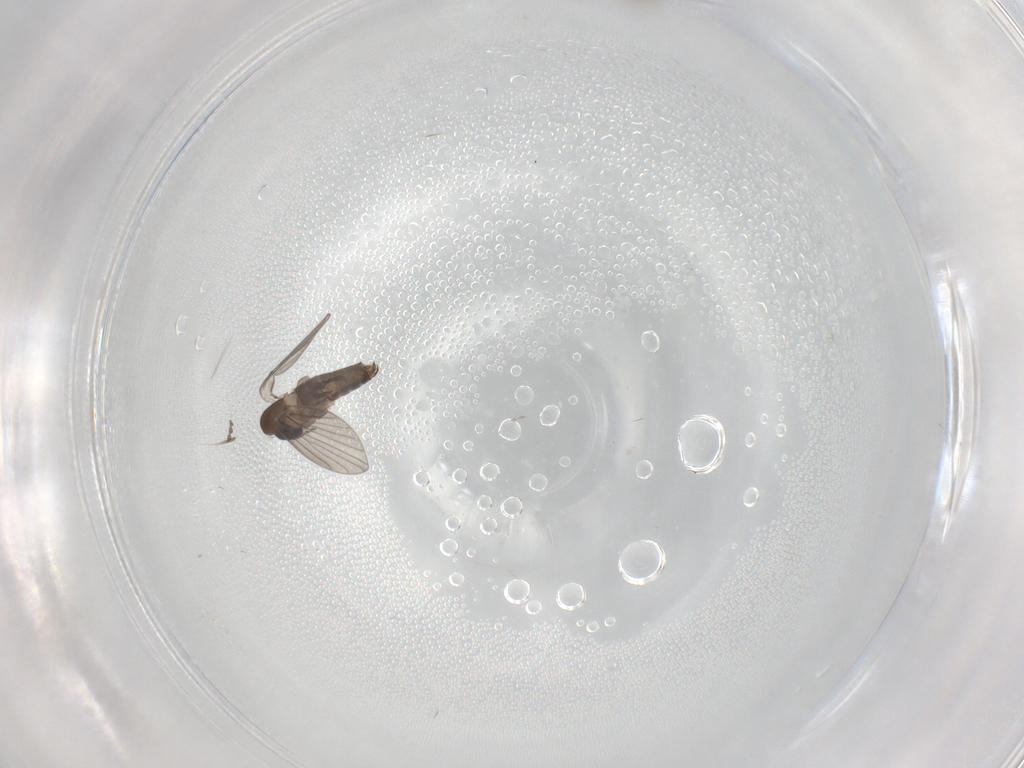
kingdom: Animalia
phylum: Arthropoda
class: Insecta
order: Diptera
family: Cecidomyiidae
